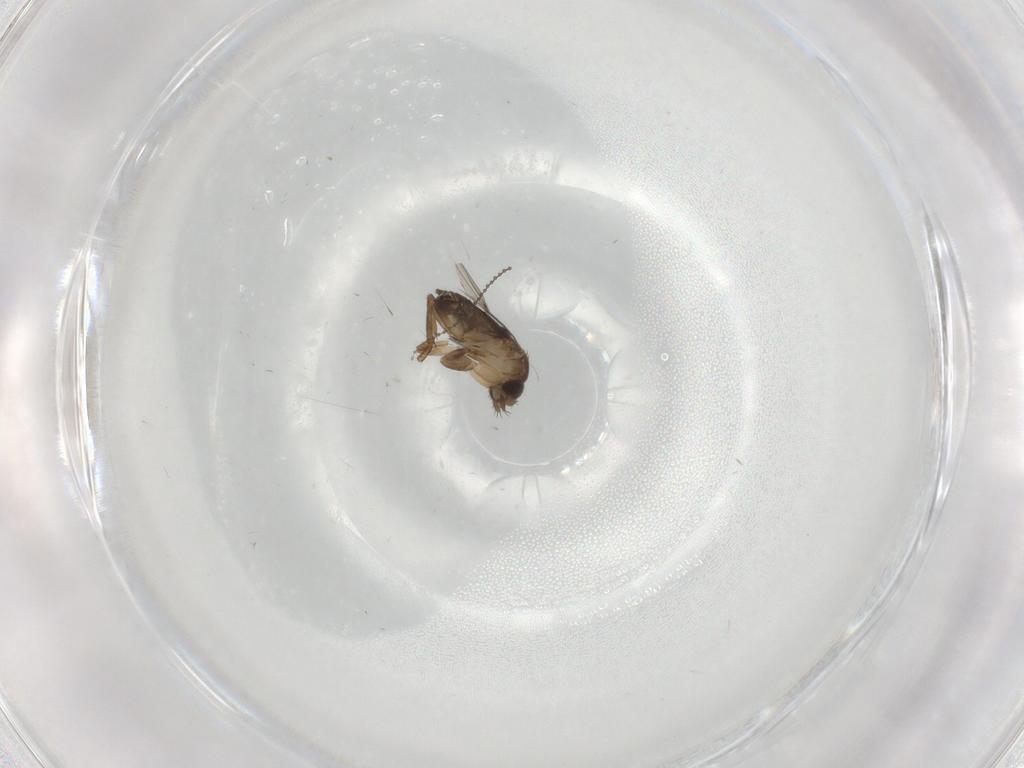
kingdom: Animalia
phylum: Arthropoda
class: Insecta
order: Diptera
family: Phoridae
